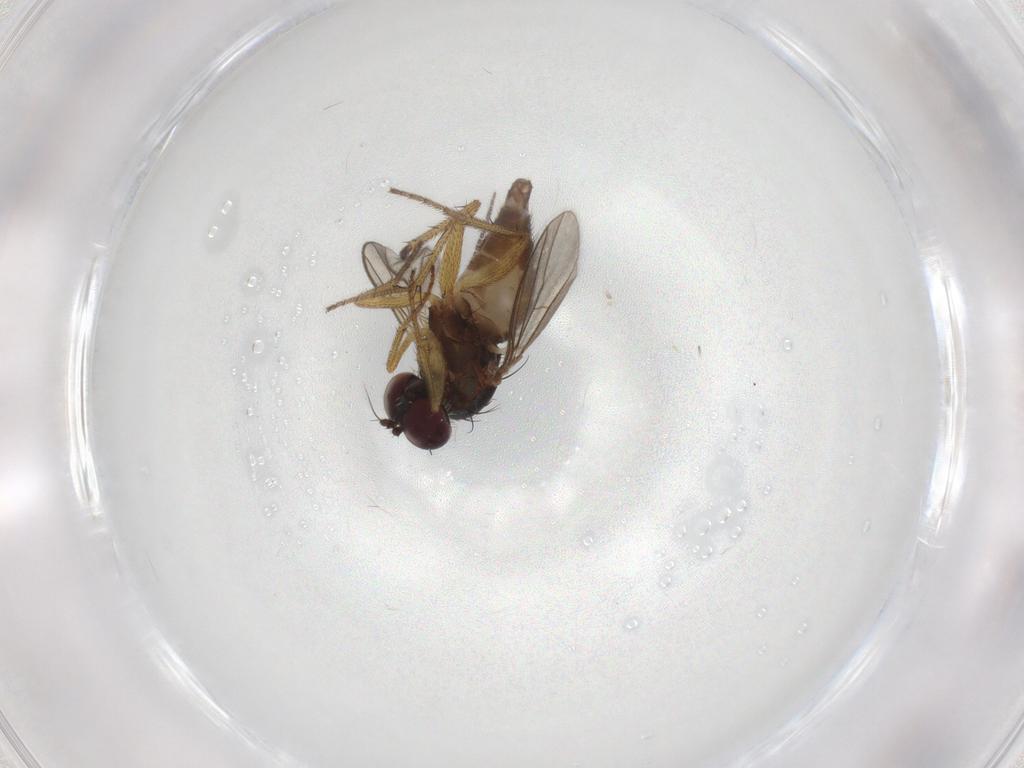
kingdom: Animalia
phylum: Arthropoda
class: Insecta
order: Diptera
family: Dolichopodidae
